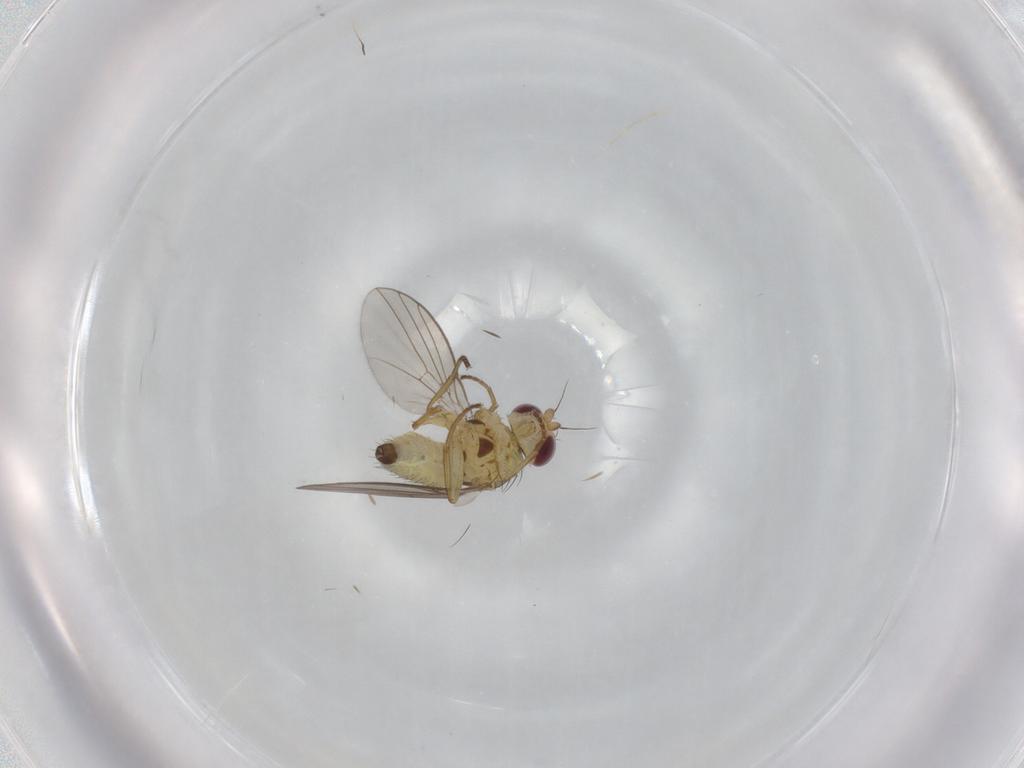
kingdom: Animalia
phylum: Arthropoda
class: Insecta
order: Diptera
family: Agromyzidae
